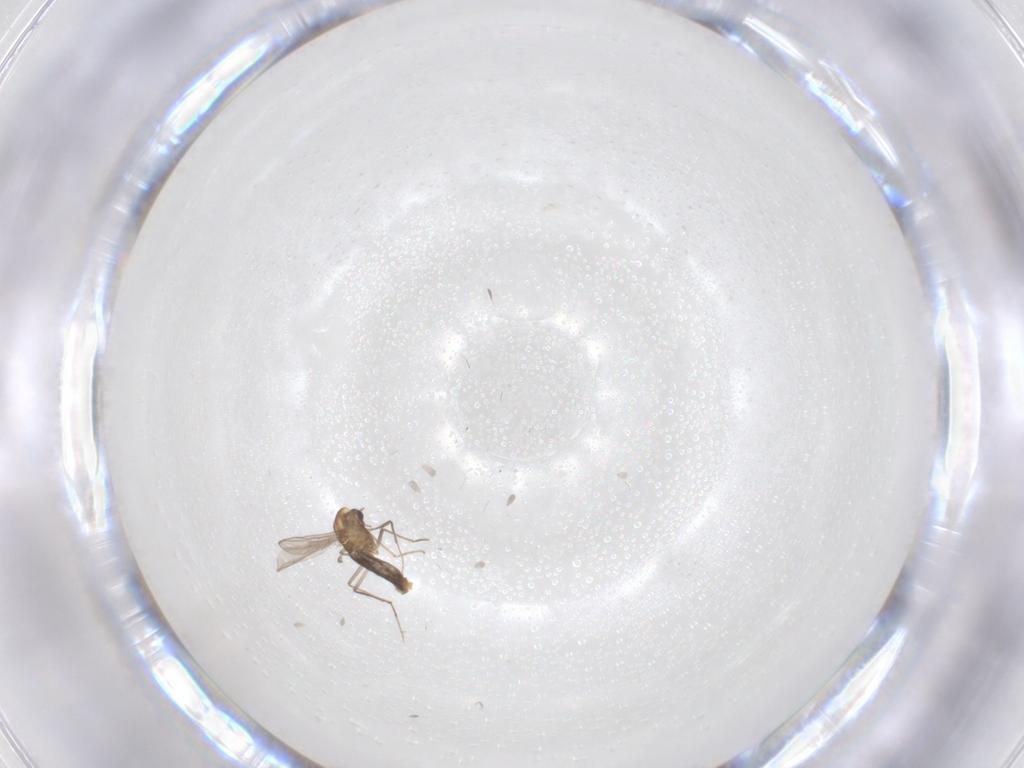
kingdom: Animalia
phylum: Arthropoda
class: Insecta
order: Diptera
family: Chironomidae
